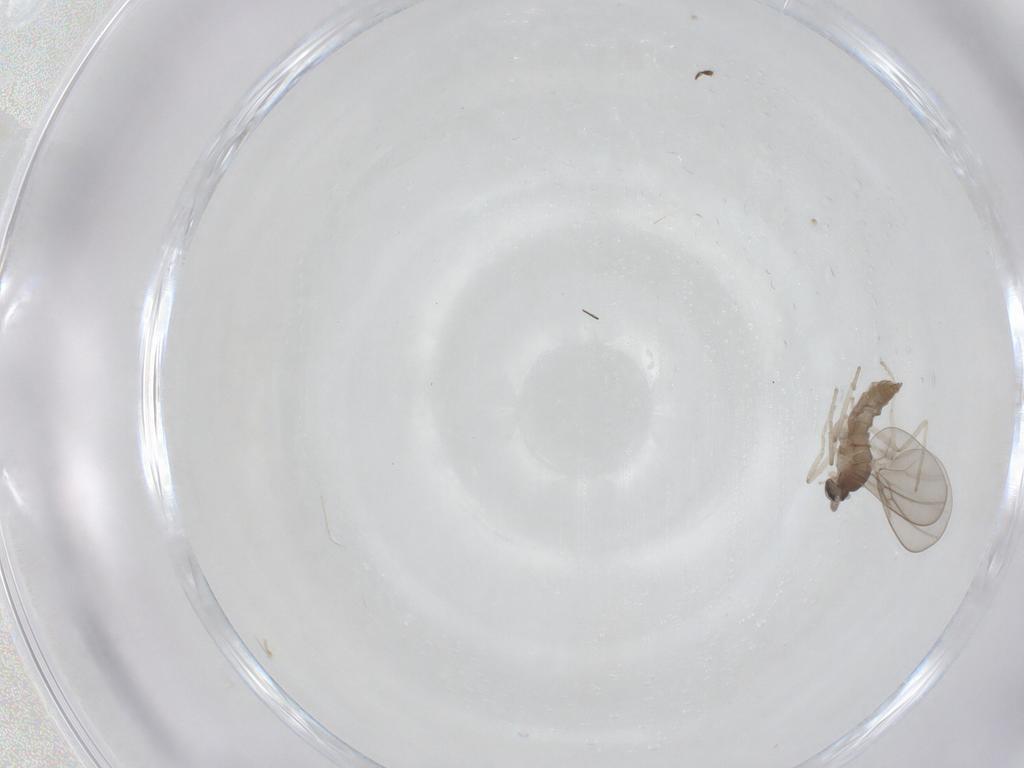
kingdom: Animalia
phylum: Arthropoda
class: Insecta
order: Diptera
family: Cecidomyiidae
